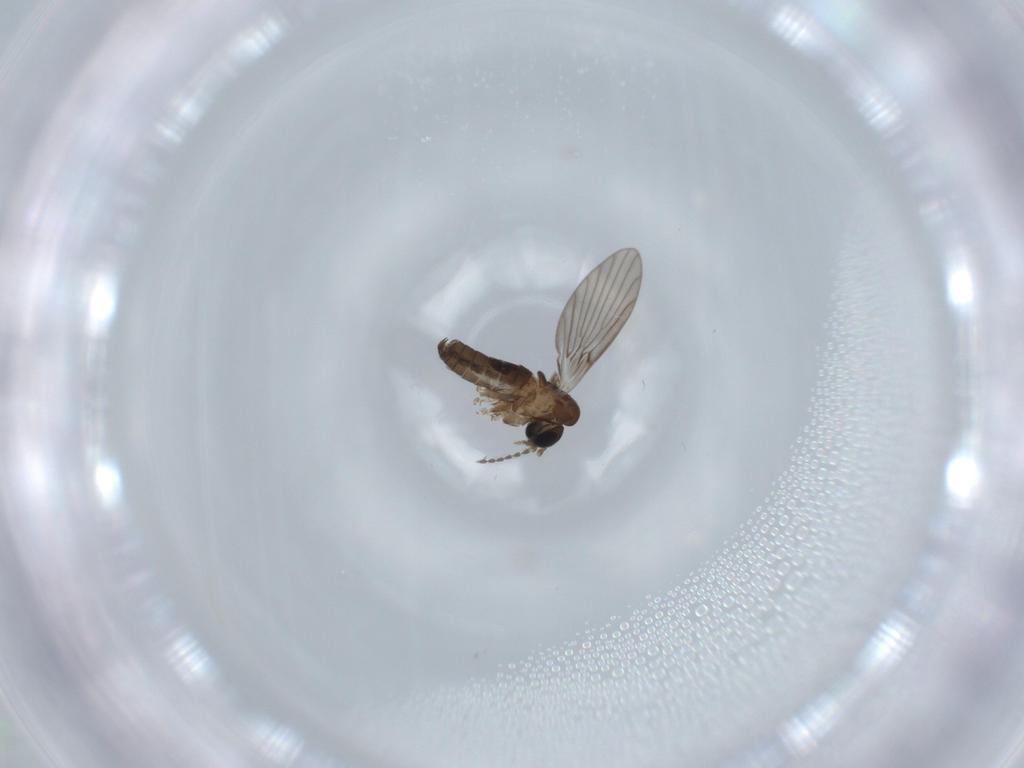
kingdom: Animalia
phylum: Arthropoda
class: Insecta
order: Diptera
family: Psychodidae
